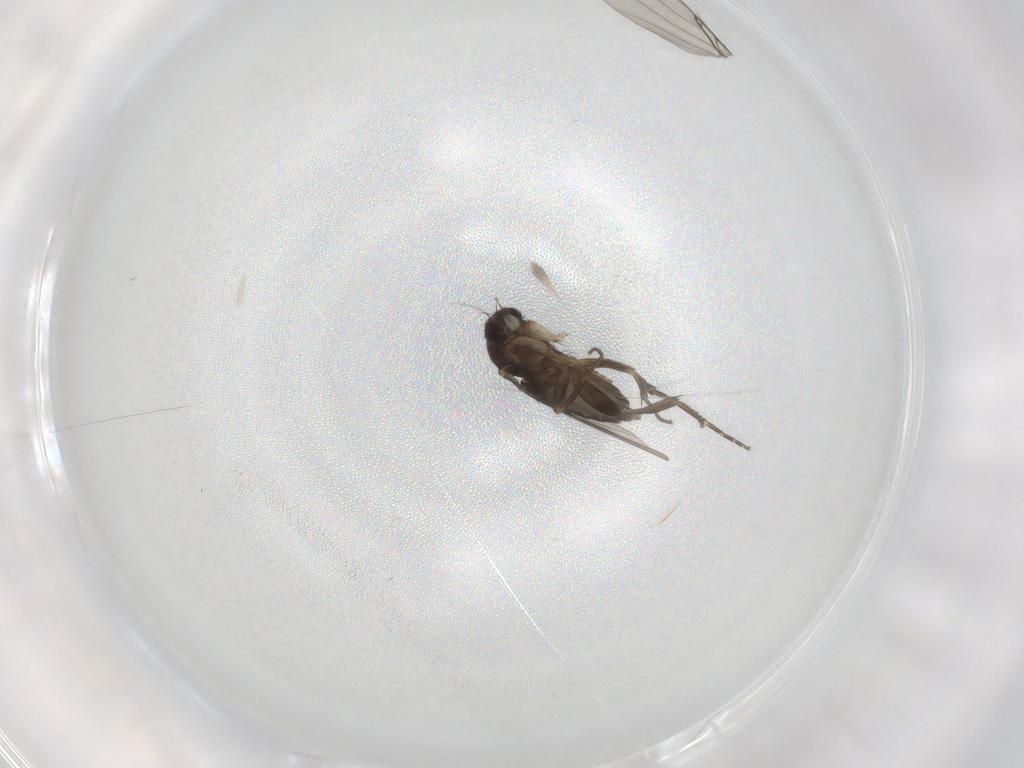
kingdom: Animalia
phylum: Arthropoda
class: Insecta
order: Diptera
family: Phoridae
